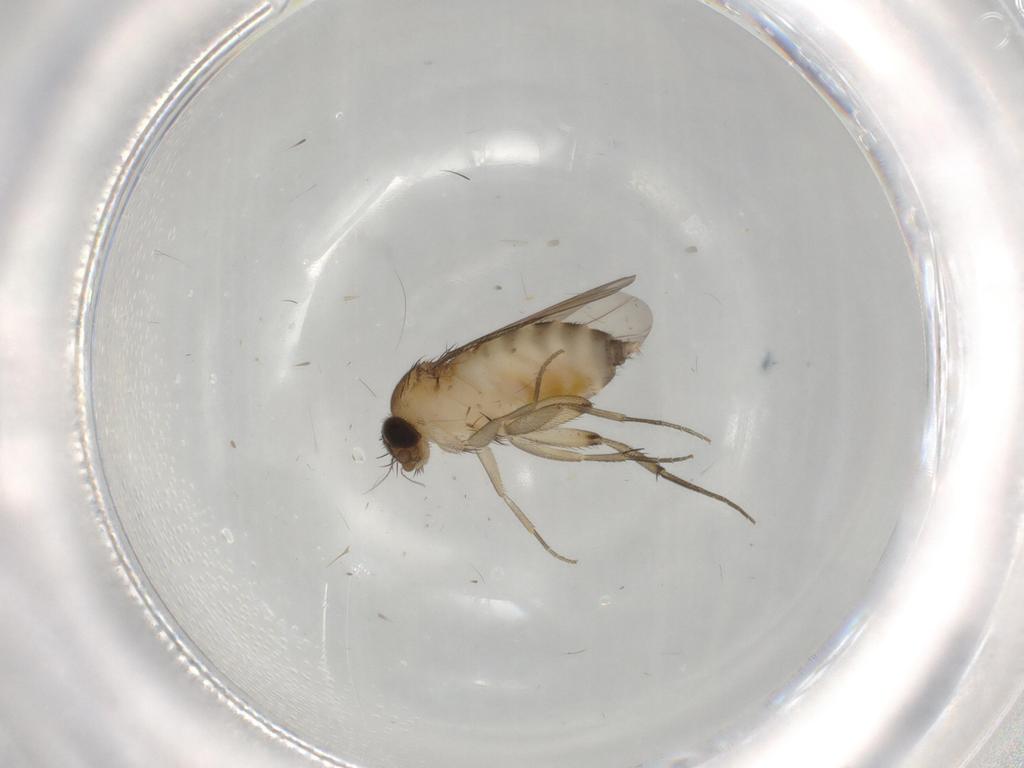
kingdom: Animalia
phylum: Arthropoda
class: Insecta
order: Diptera
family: Phoridae
